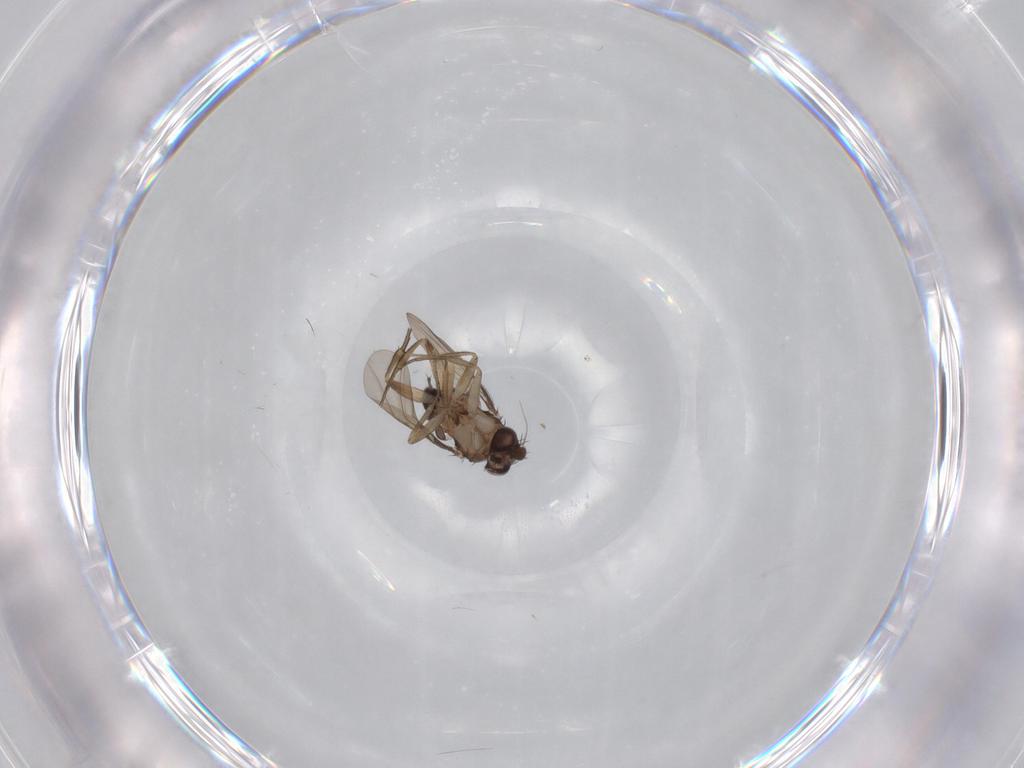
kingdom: Animalia
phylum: Arthropoda
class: Insecta
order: Diptera
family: Phoridae
